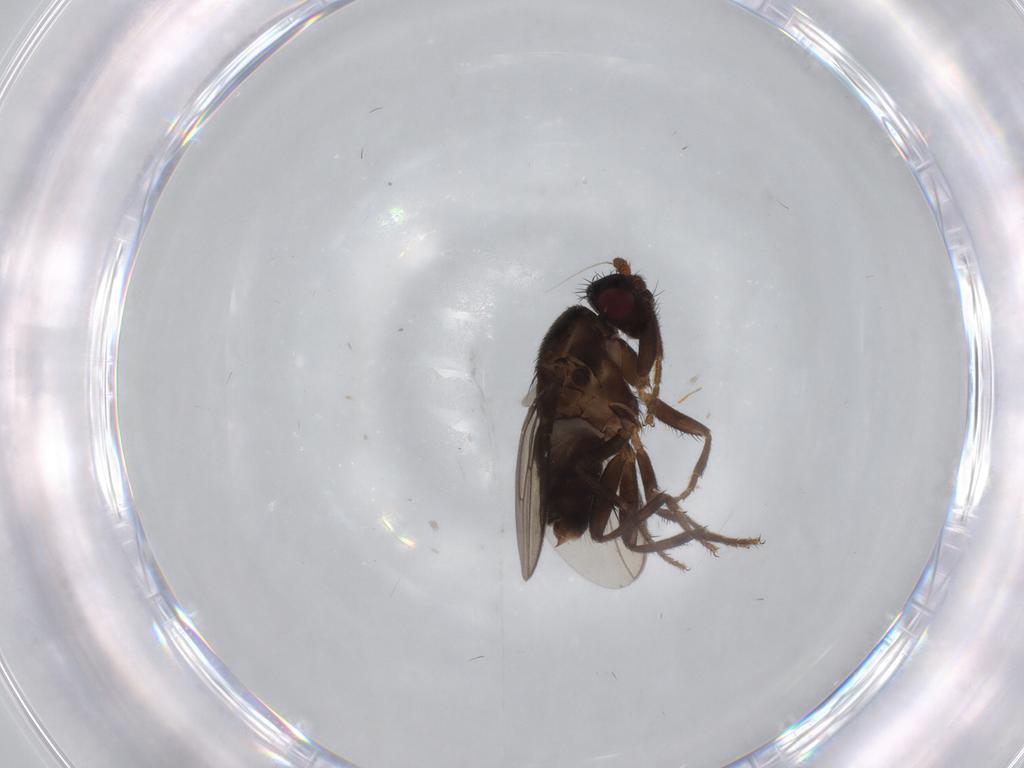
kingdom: Animalia
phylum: Arthropoda
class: Insecta
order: Diptera
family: Sphaeroceridae
